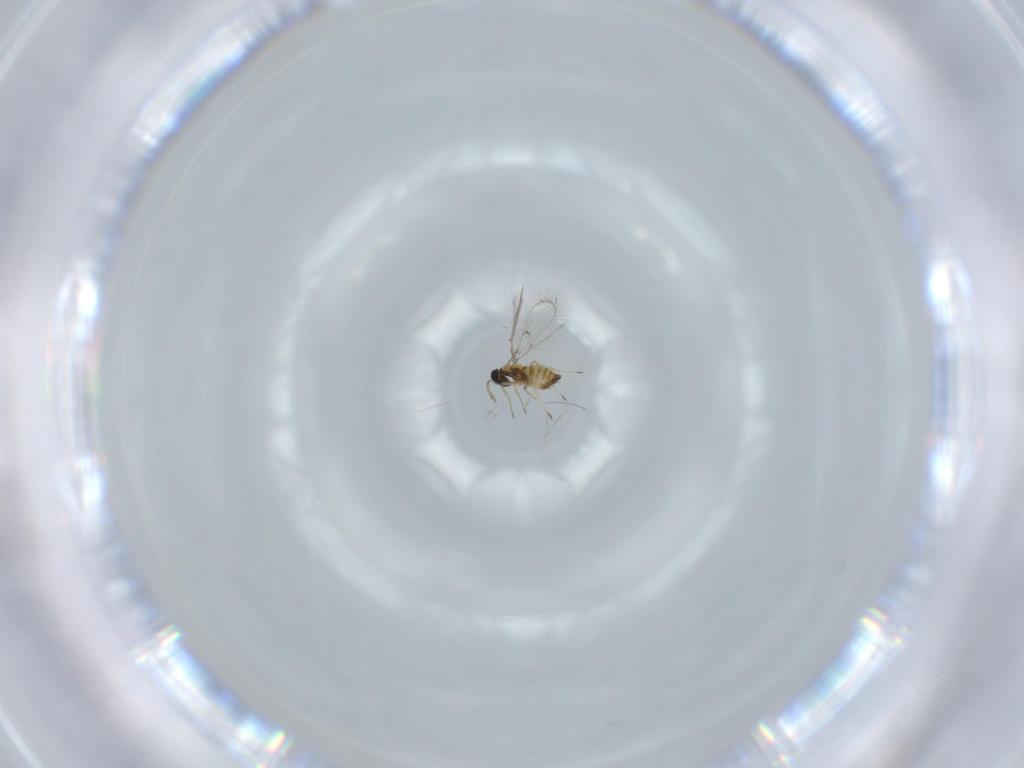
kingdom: Animalia
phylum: Arthropoda
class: Insecta
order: Hymenoptera
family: Trichogrammatidae
